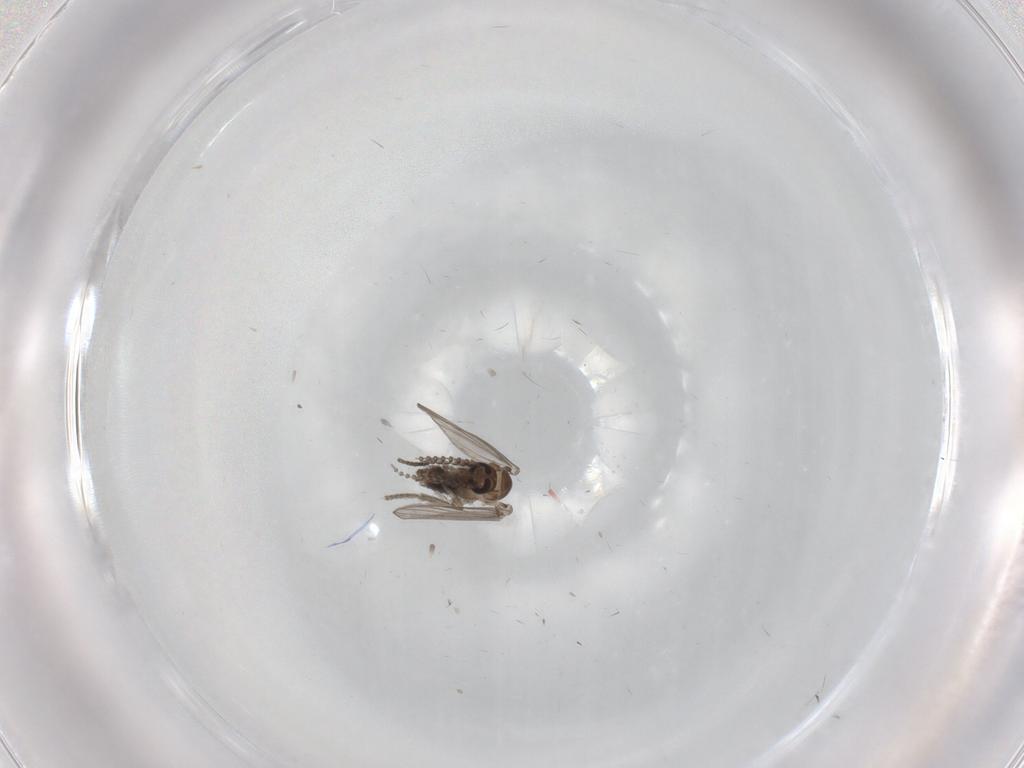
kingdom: Animalia
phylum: Arthropoda
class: Insecta
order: Diptera
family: Psychodidae
